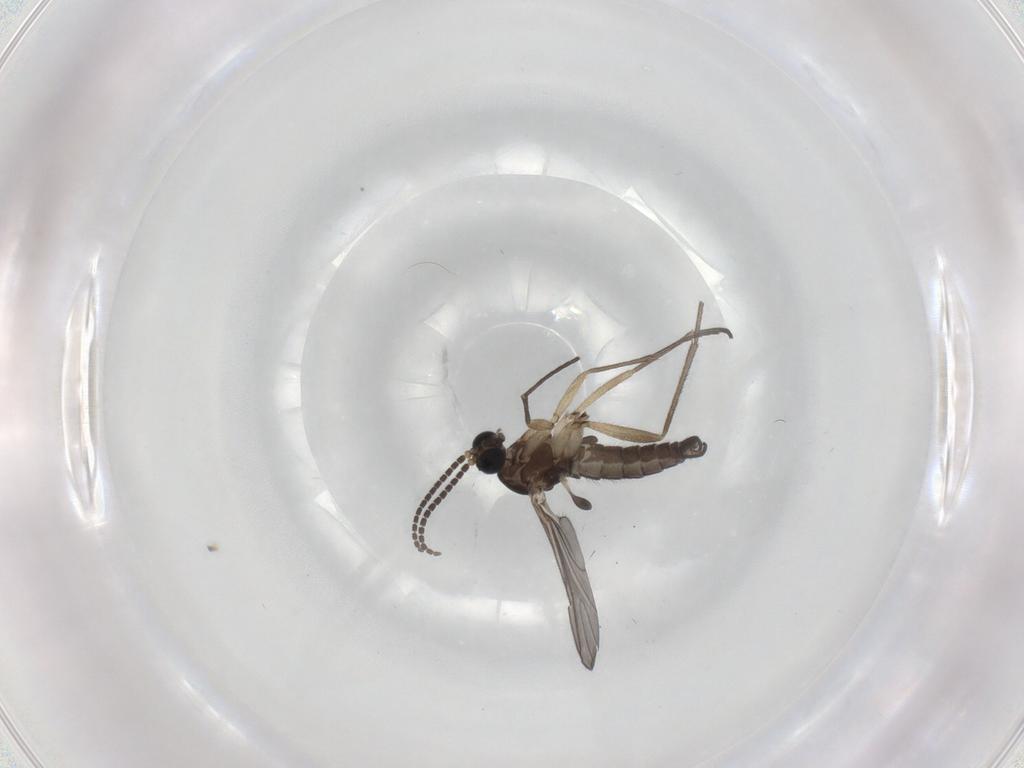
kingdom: Animalia
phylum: Arthropoda
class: Insecta
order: Diptera
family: Chironomidae
